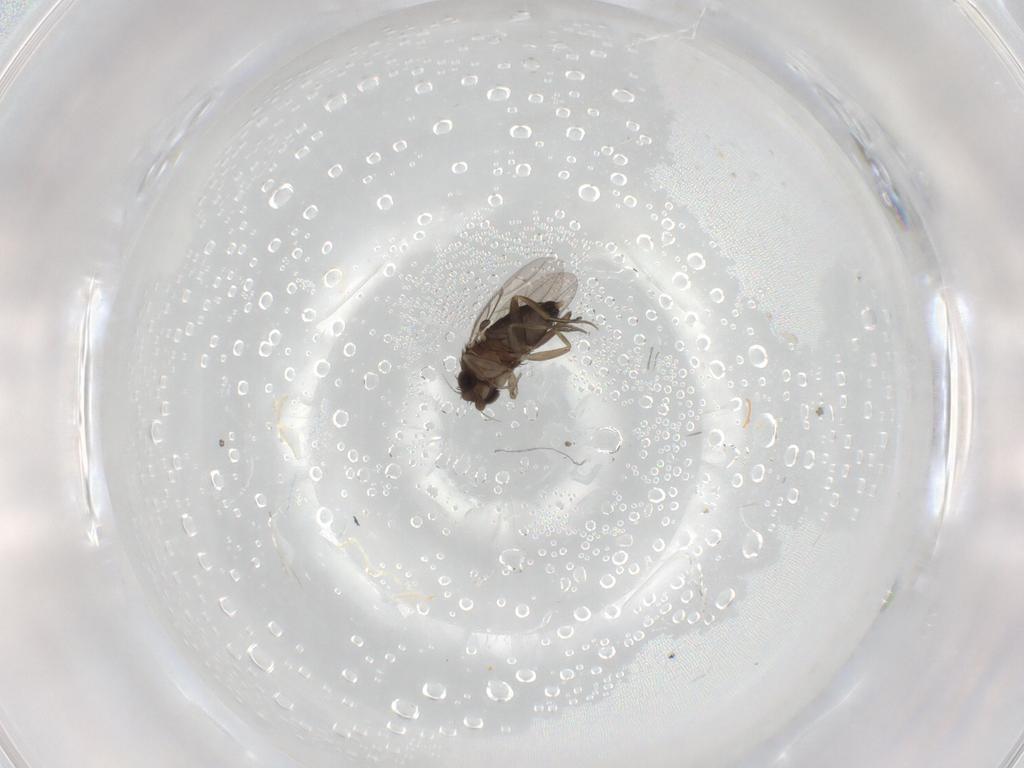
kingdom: Animalia
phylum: Arthropoda
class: Insecta
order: Diptera
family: Phoridae
